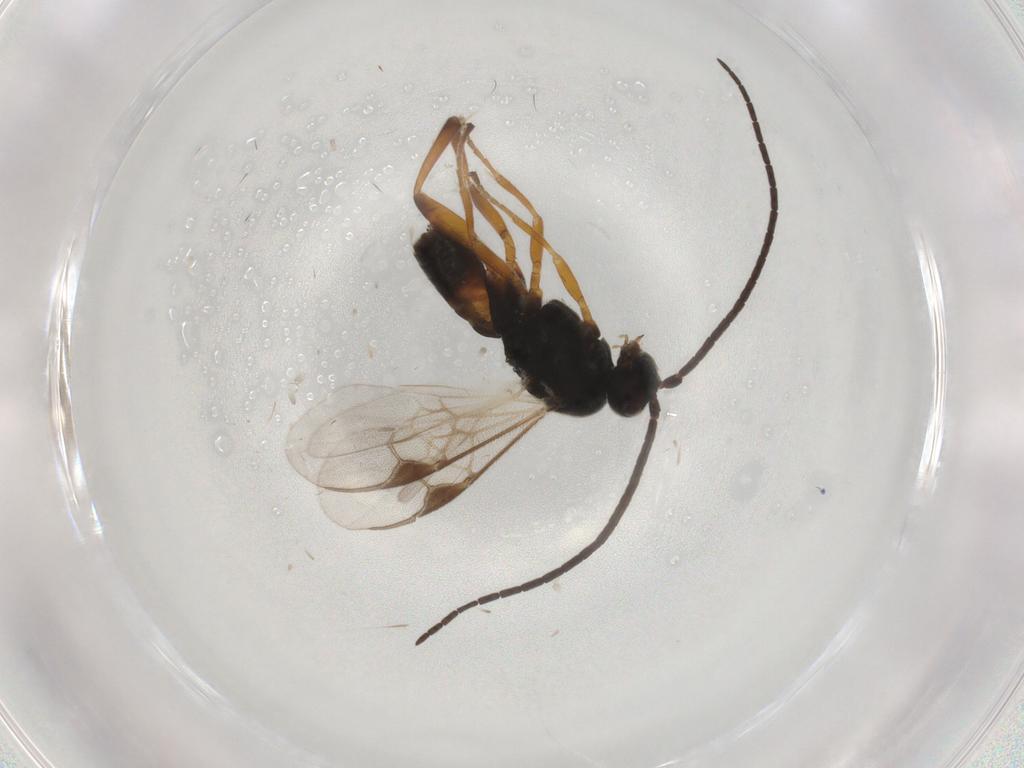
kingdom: Animalia
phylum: Arthropoda
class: Insecta
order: Hymenoptera
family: Braconidae
